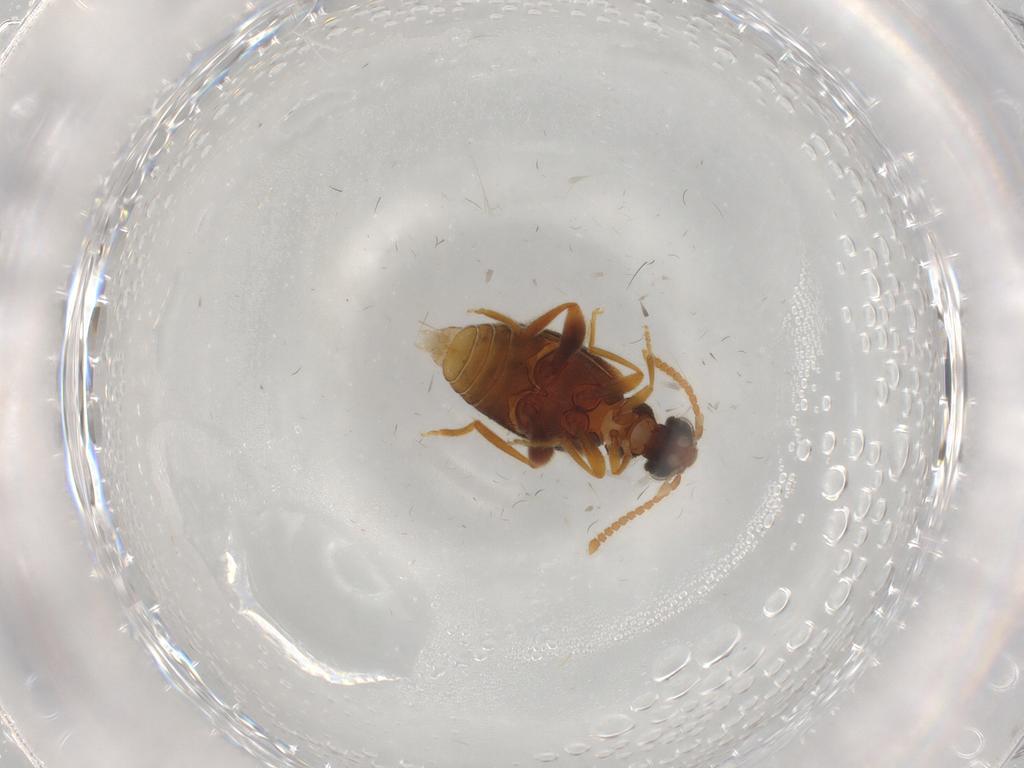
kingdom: Animalia
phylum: Arthropoda
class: Insecta
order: Coleoptera
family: Aderidae
